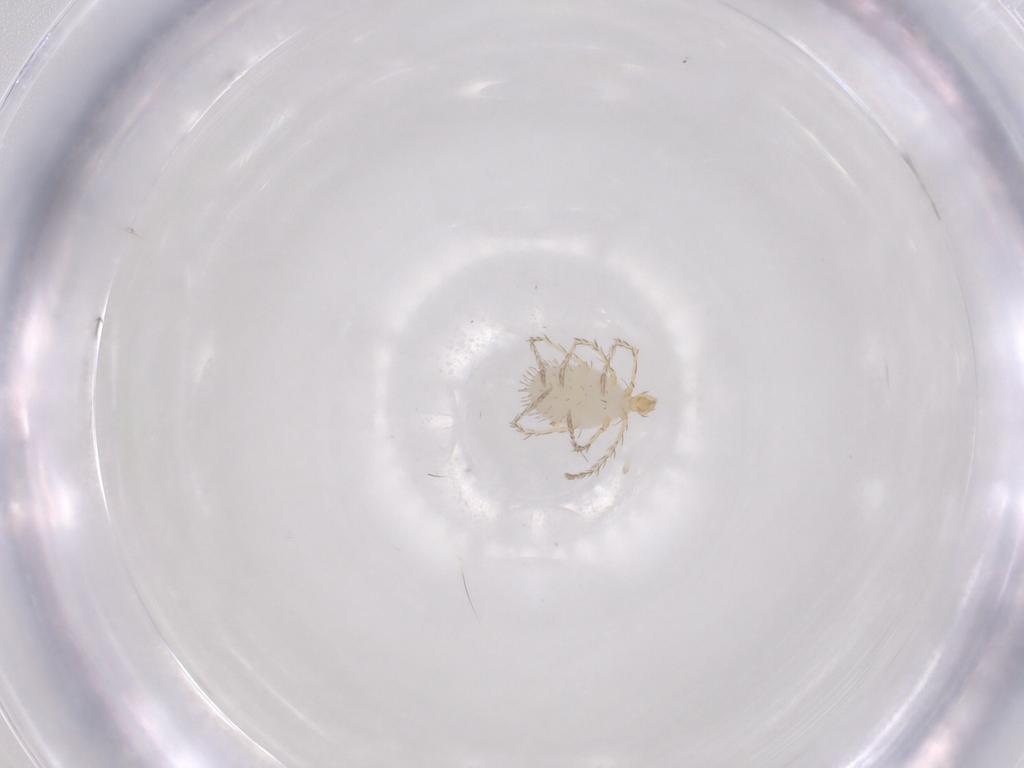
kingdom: Animalia
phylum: Arthropoda
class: Arachnida
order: Trombidiformes
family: Erythraeidae
